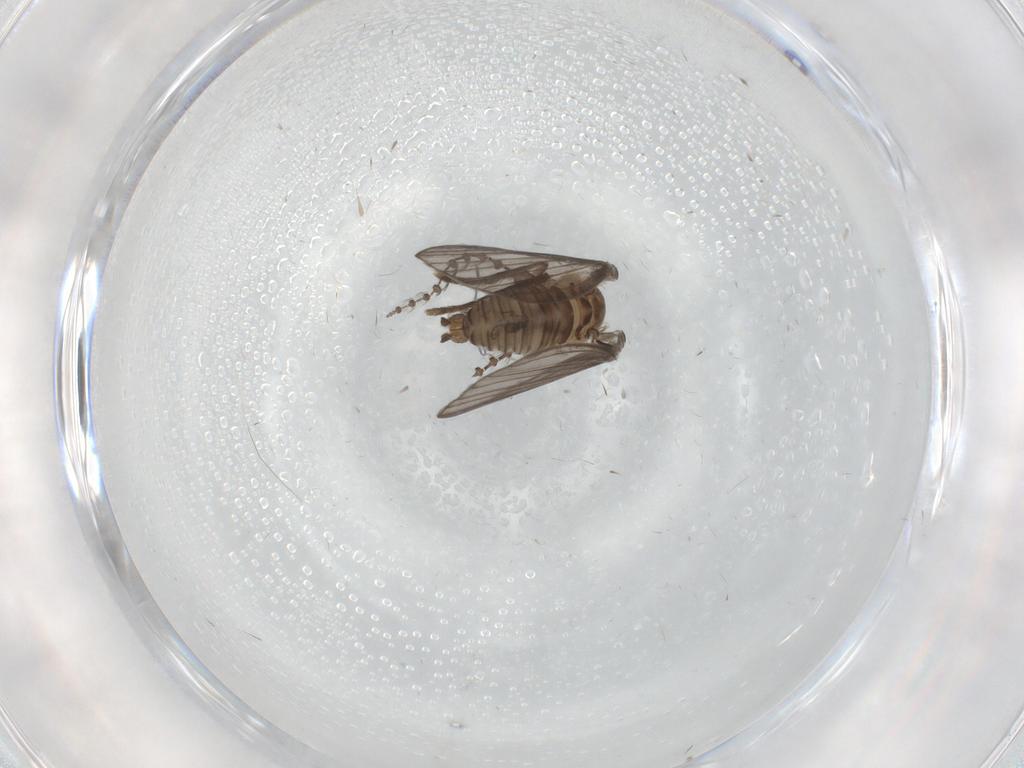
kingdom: Animalia
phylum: Arthropoda
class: Insecta
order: Diptera
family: Psychodidae
